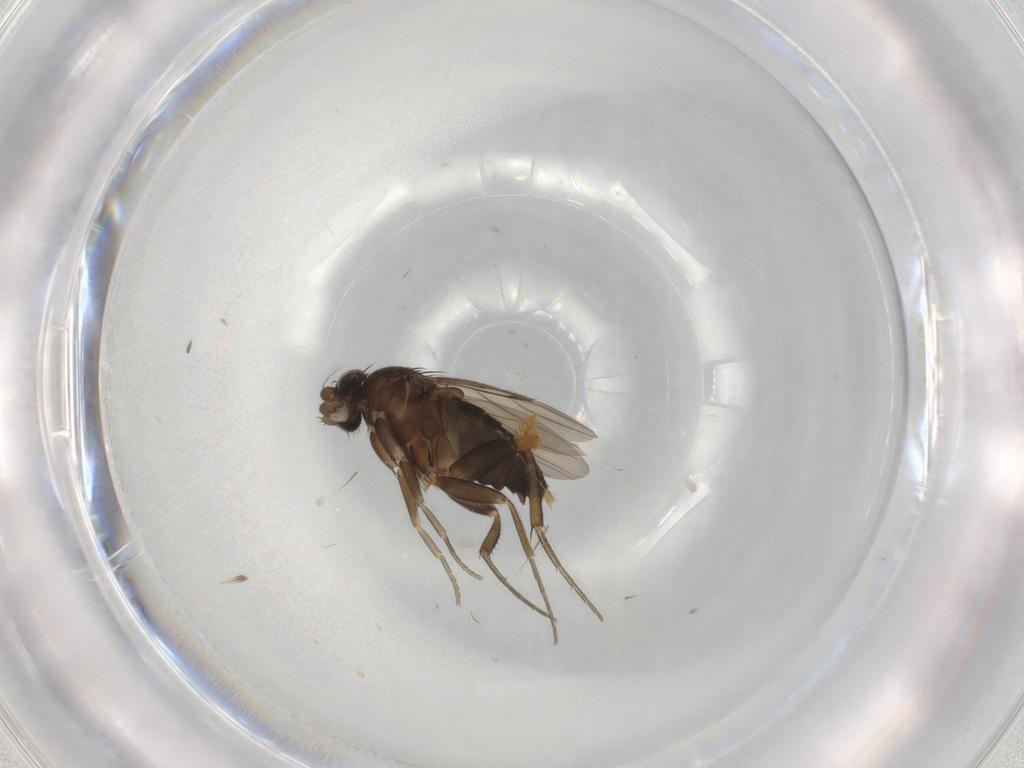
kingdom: Animalia
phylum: Arthropoda
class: Insecta
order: Diptera
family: Phoridae
